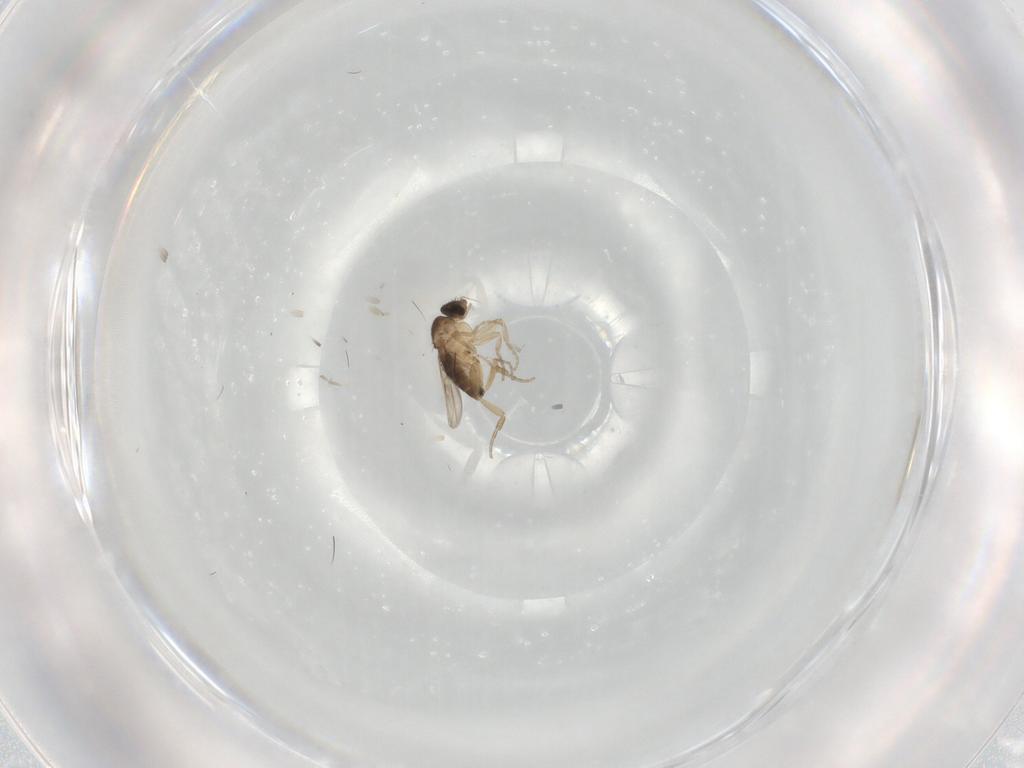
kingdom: Animalia
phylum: Arthropoda
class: Insecta
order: Diptera
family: Phoridae
